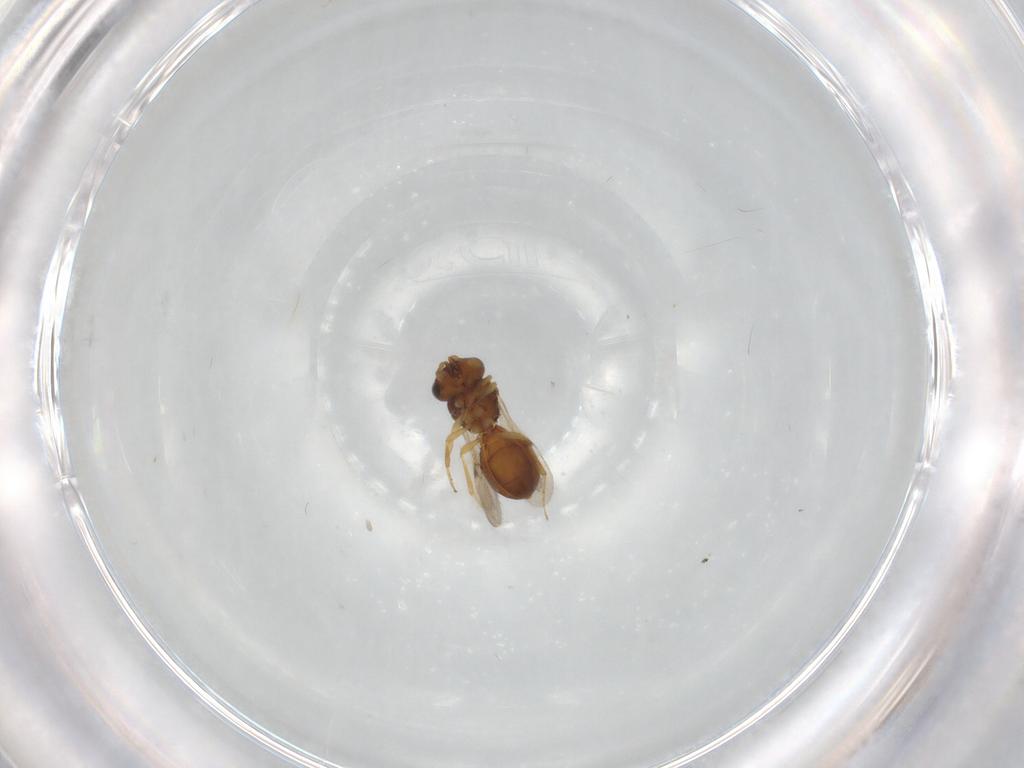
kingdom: Animalia
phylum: Arthropoda
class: Insecta
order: Hymenoptera
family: Scelionidae
